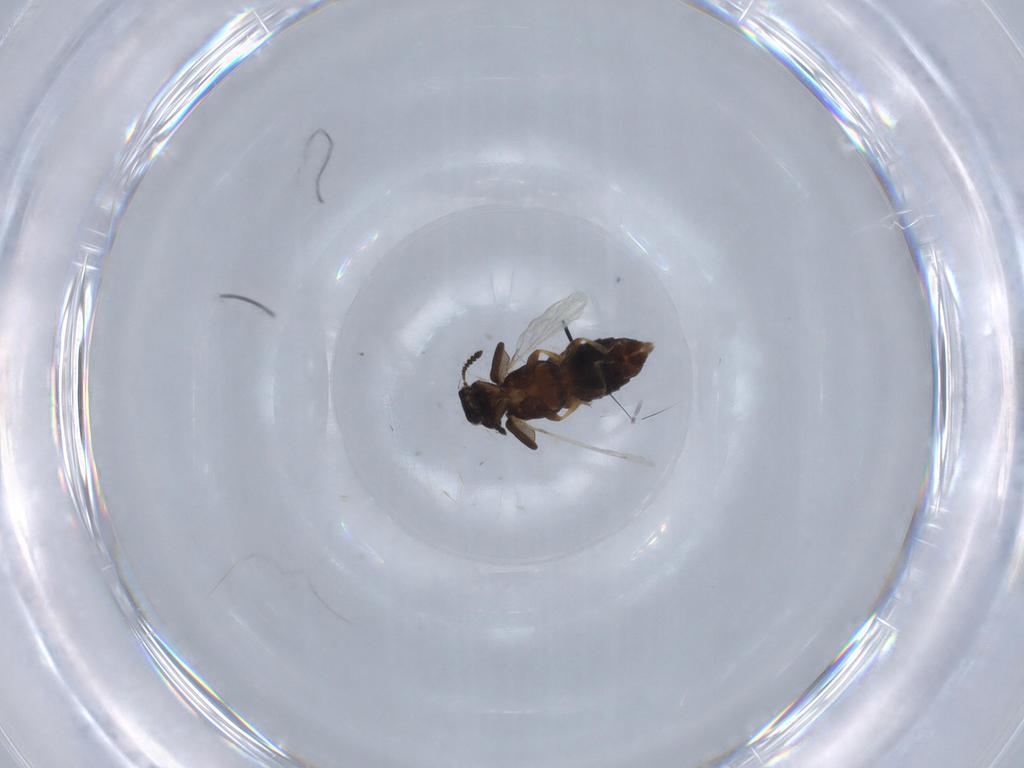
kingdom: Animalia
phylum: Arthropoda
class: Insecta
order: Coleoptera
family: Staphylinidae
